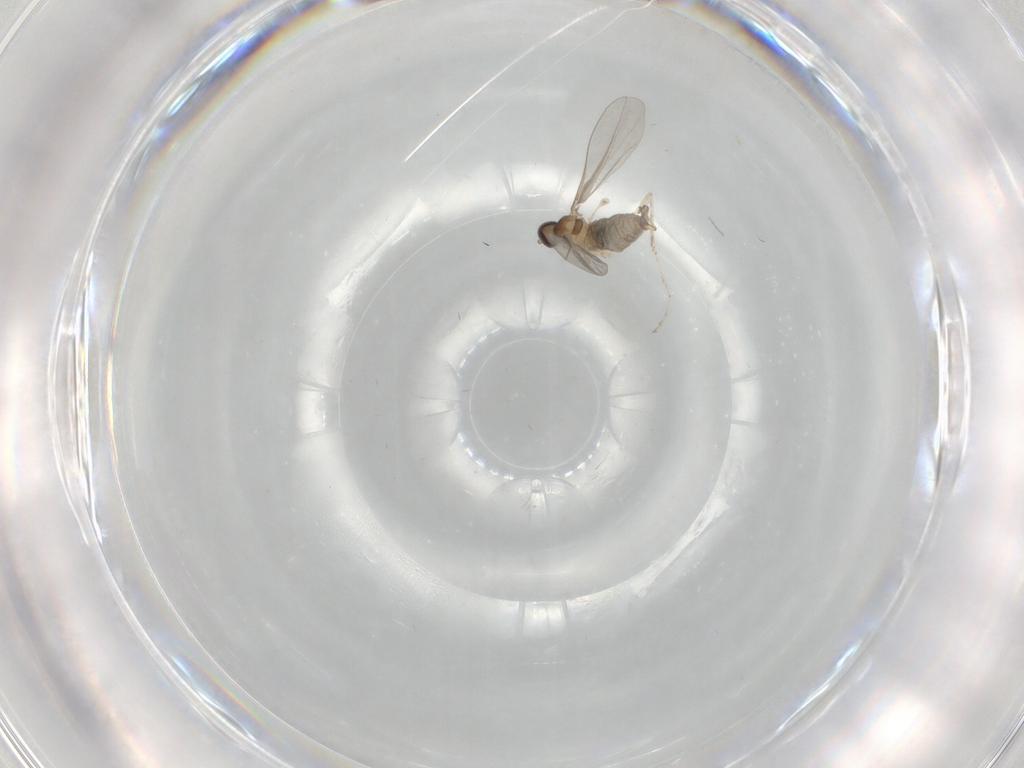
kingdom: Animalia
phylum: Arthropoda
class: Insecta
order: Diptera
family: Cecidomyiidae
